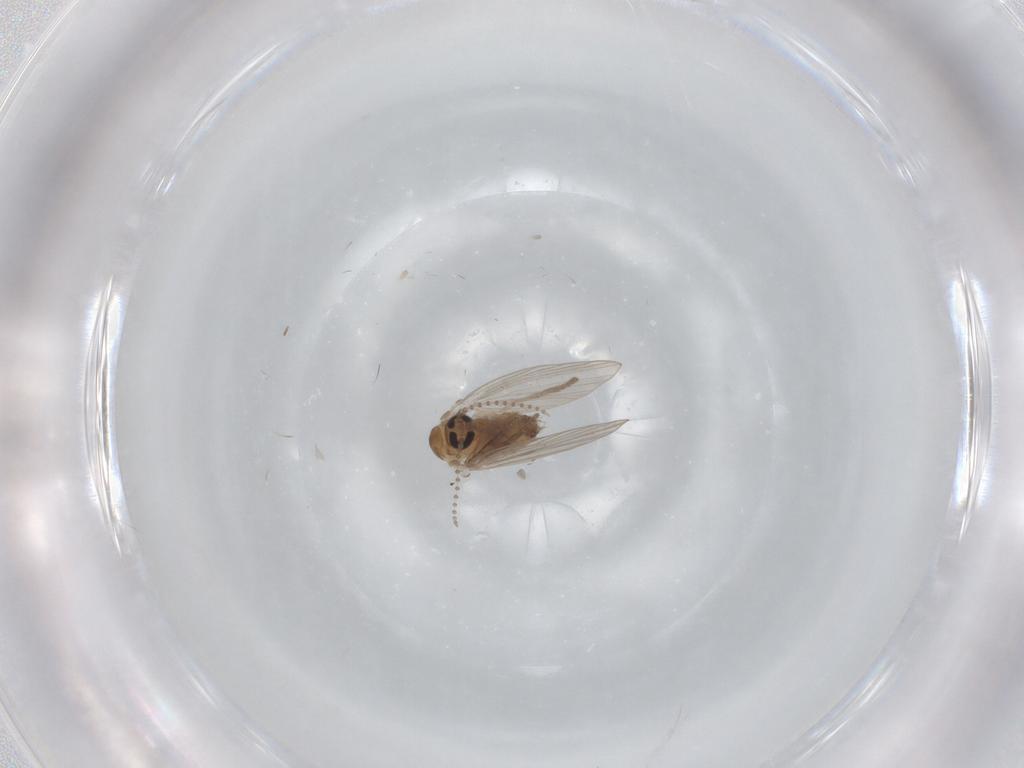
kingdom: Animalia
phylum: Arthropoda
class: Insecta
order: Diptera
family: Psychodidae
